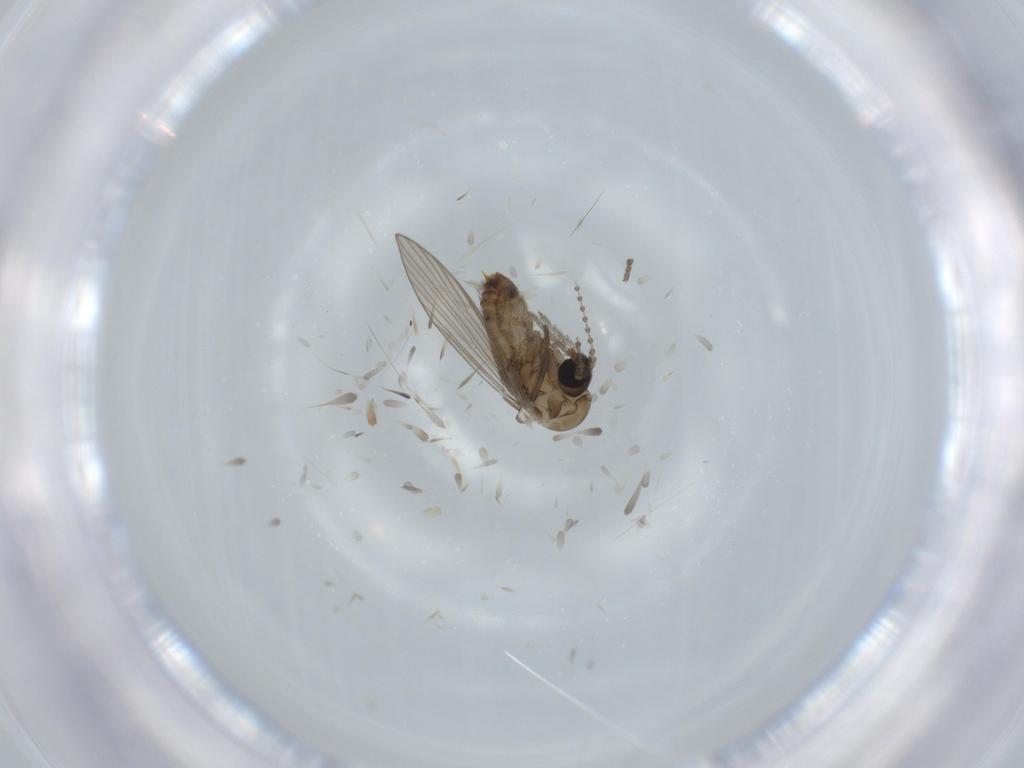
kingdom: Animalia
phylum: Arthropoda
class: Insecta
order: Diptera
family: Psychodidae
